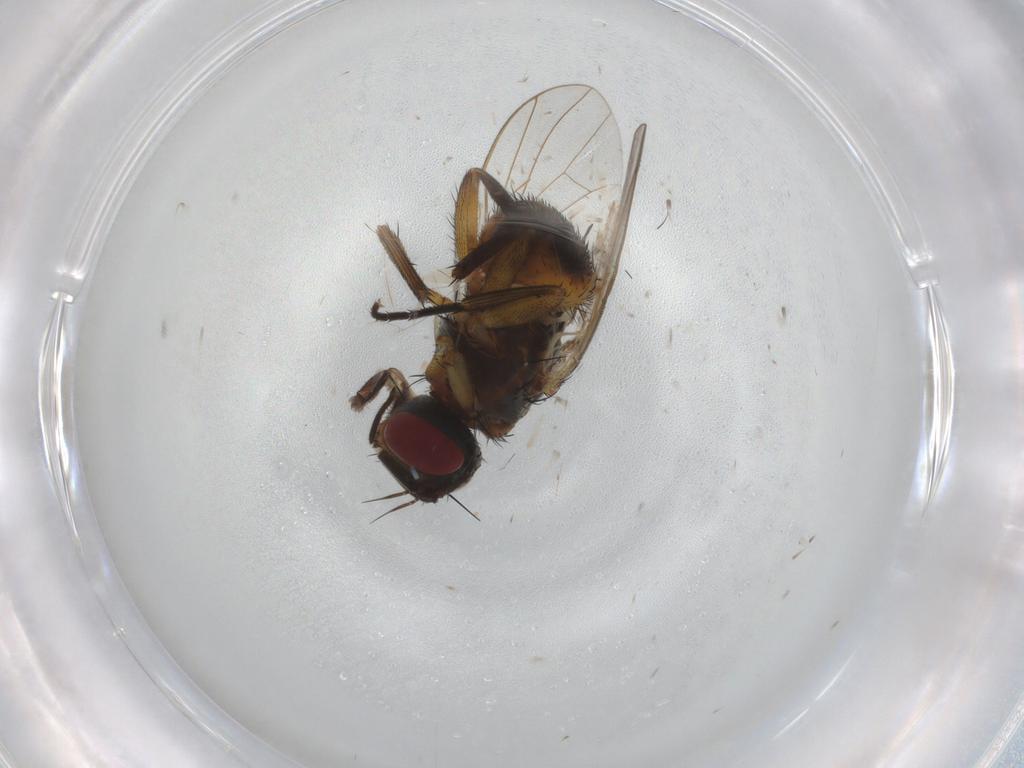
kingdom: Animalia
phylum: Arthropoda
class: Insecta
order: Diptera
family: Muscidae
